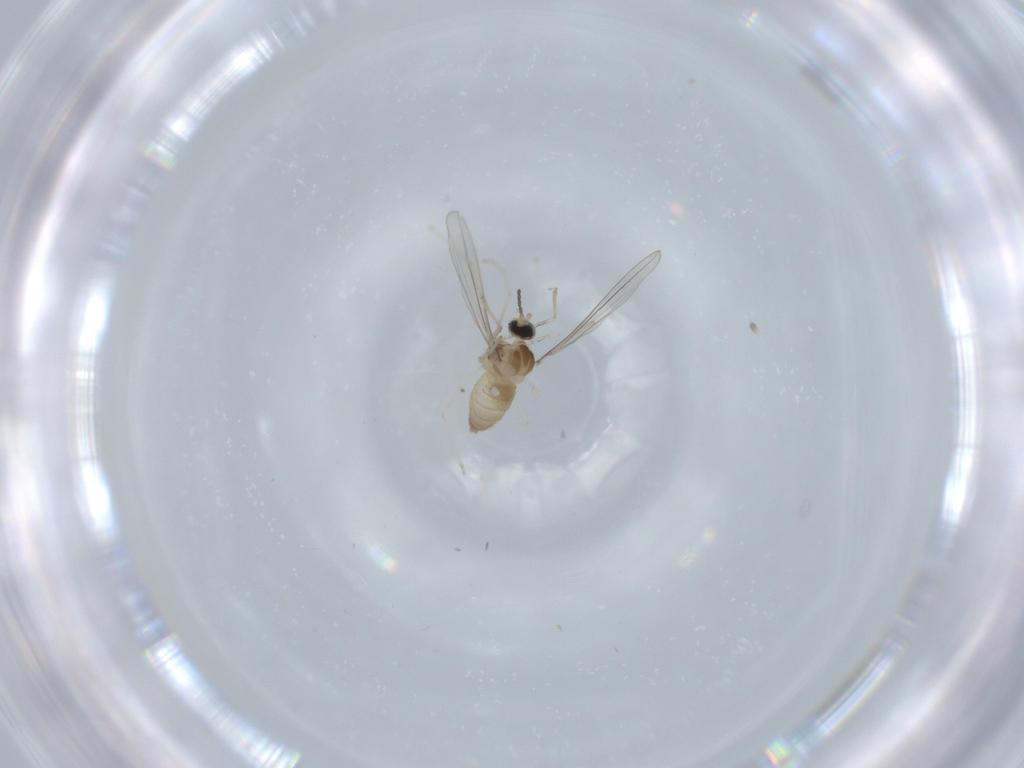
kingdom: Animalia
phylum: Arthropoda
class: Insecta
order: Diptera
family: Cecidomyiidae
